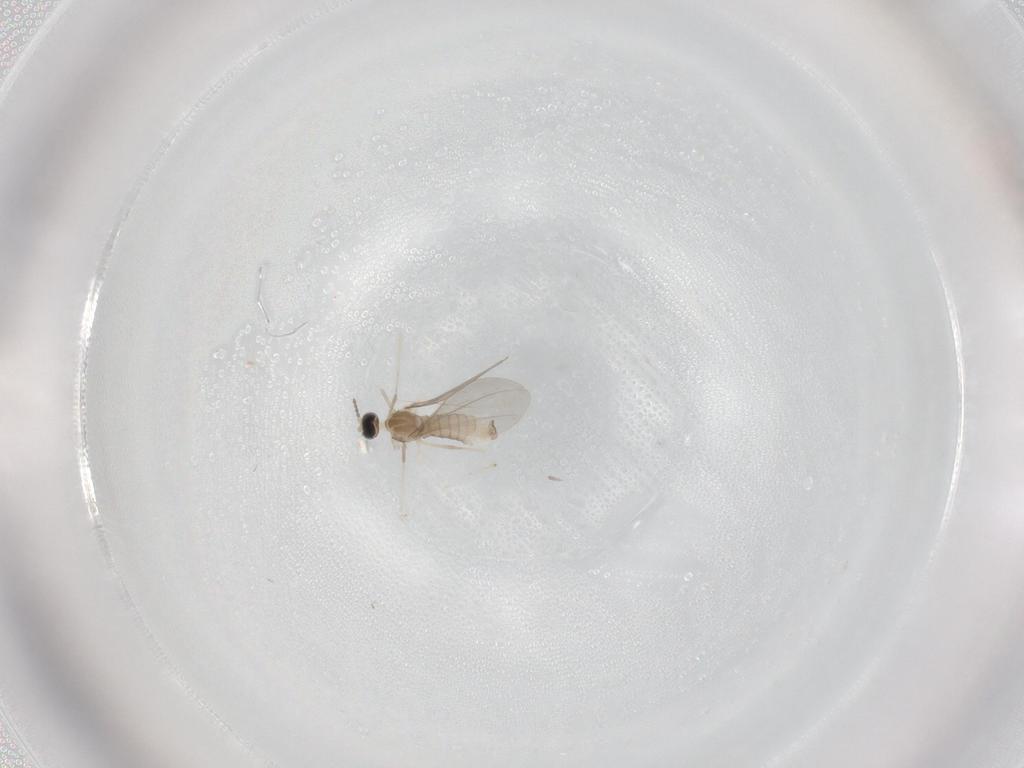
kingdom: Animalia
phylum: Arthropoda
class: Insecta
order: Diptera
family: Cecidomyiidae
